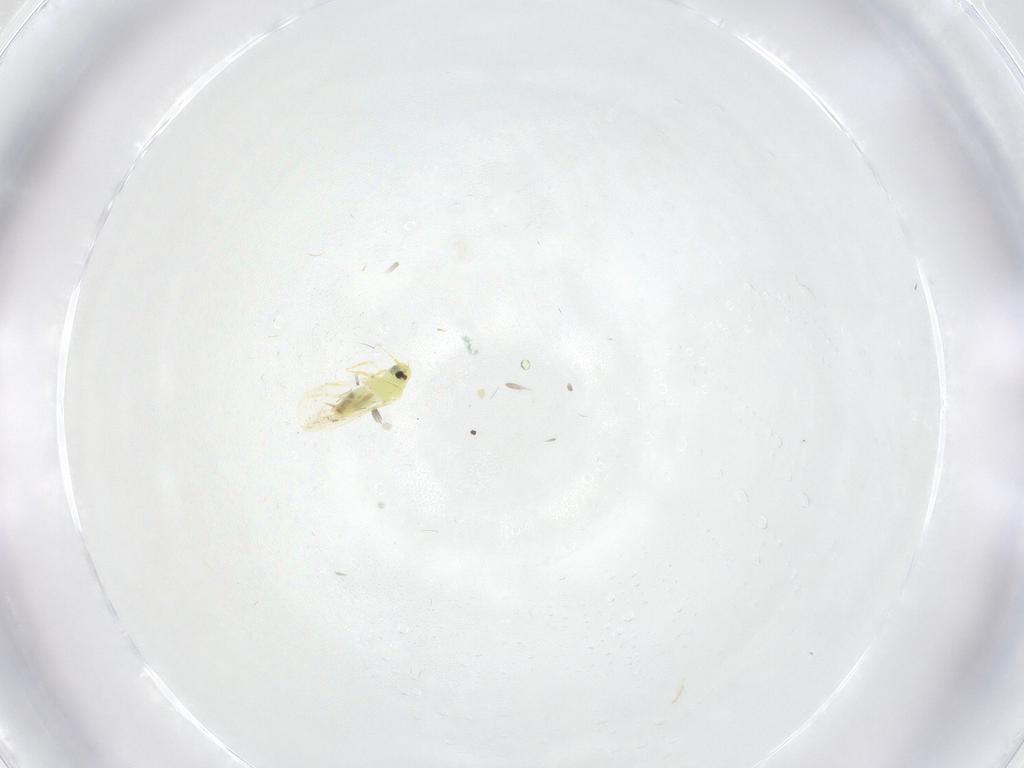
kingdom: Animalia
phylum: Arthropoda
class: Insecta
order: Hemiptera
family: Aleyrodidae
